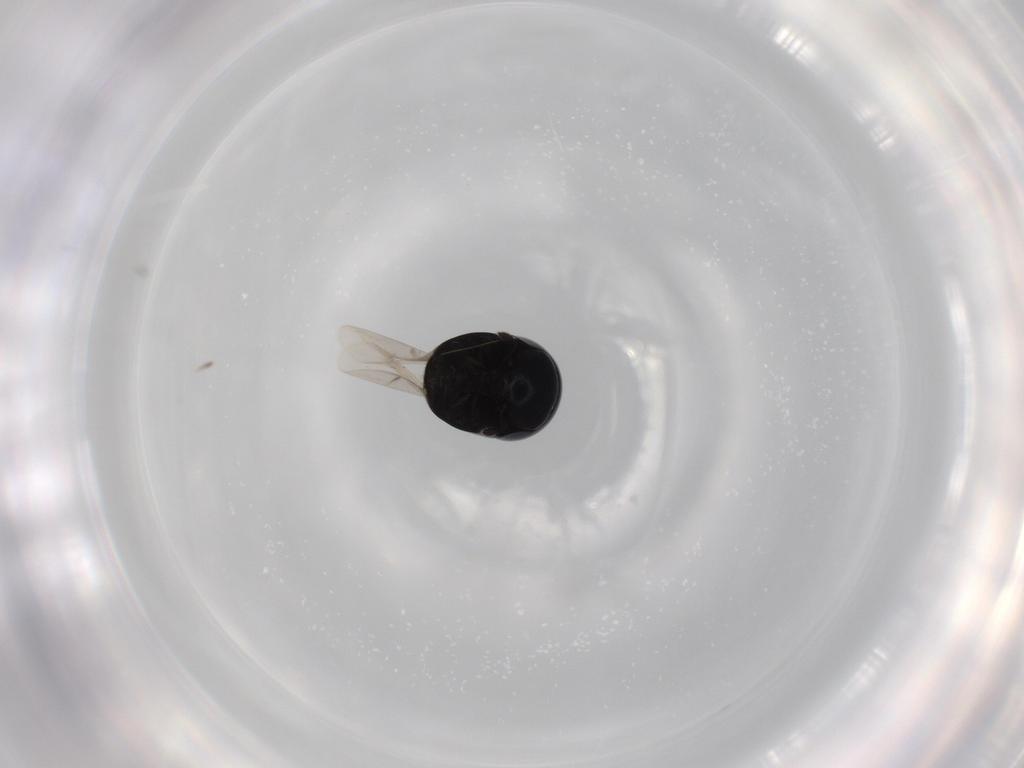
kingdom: Animalia
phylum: Arthropoda
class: Insecta
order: Coleoptera
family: Cybocephalidae
